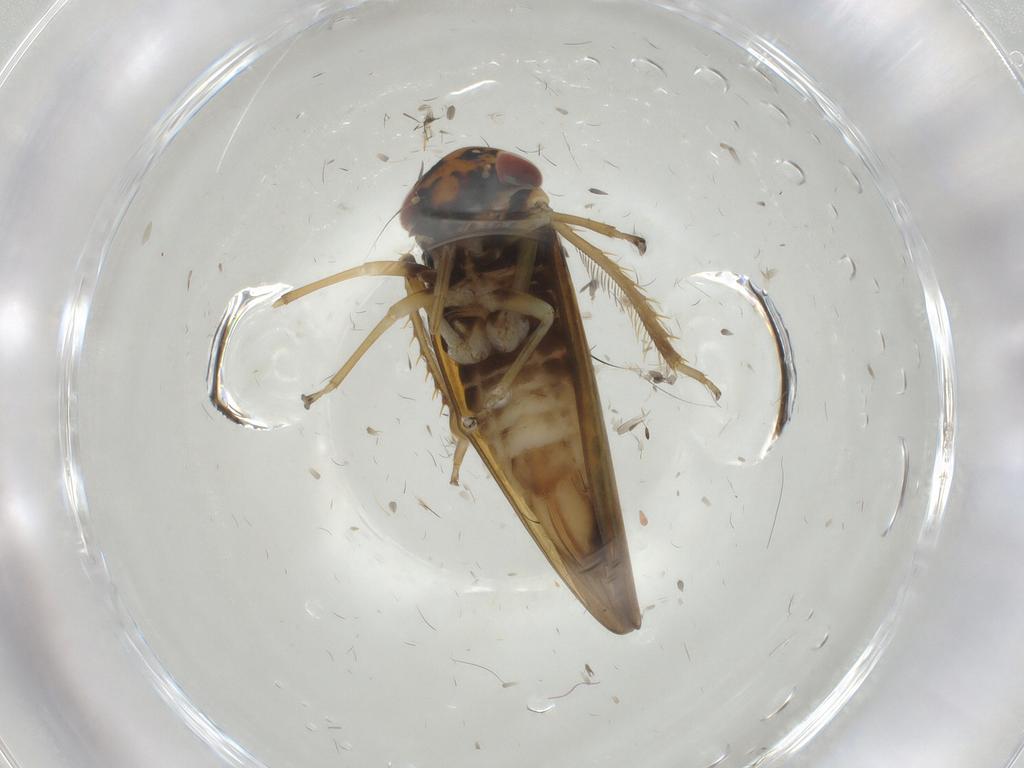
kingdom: Animalia
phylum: Arthropoda
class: Insecta
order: Hemiptera
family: Cicadellidae
